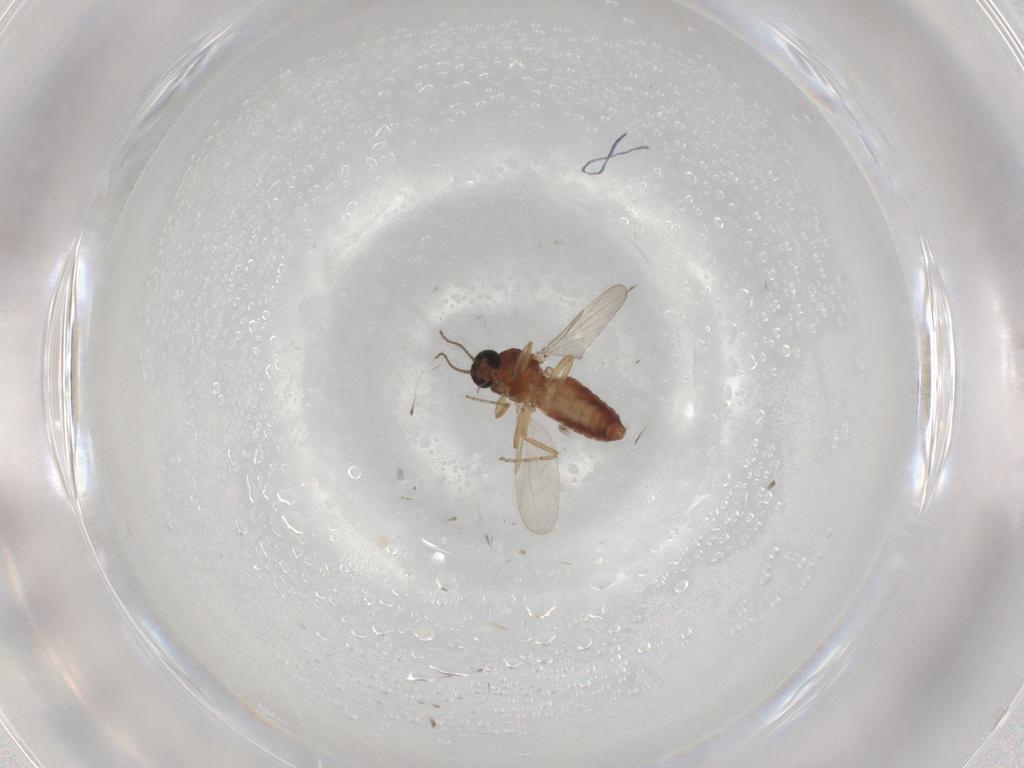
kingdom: Animalia
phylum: Arthropoda
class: Insecta
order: Diptera
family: Ceratopogonidae
